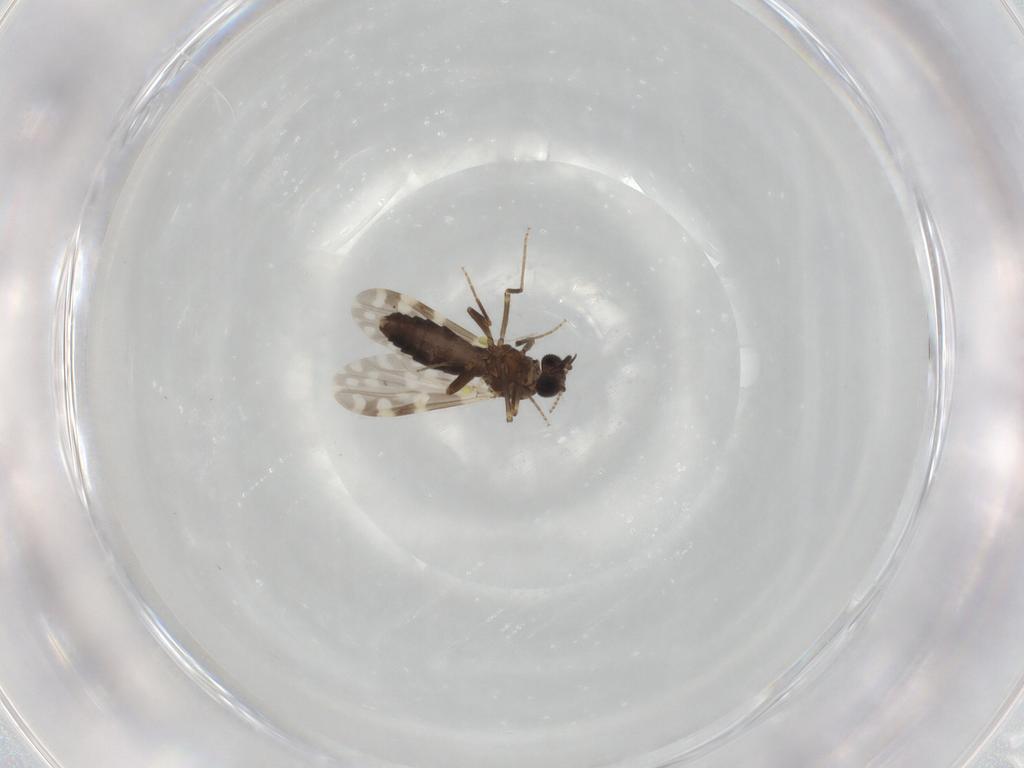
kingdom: Animalia
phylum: Arthropoda
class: Insecta
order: Diptera
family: Ceratopogonidae
